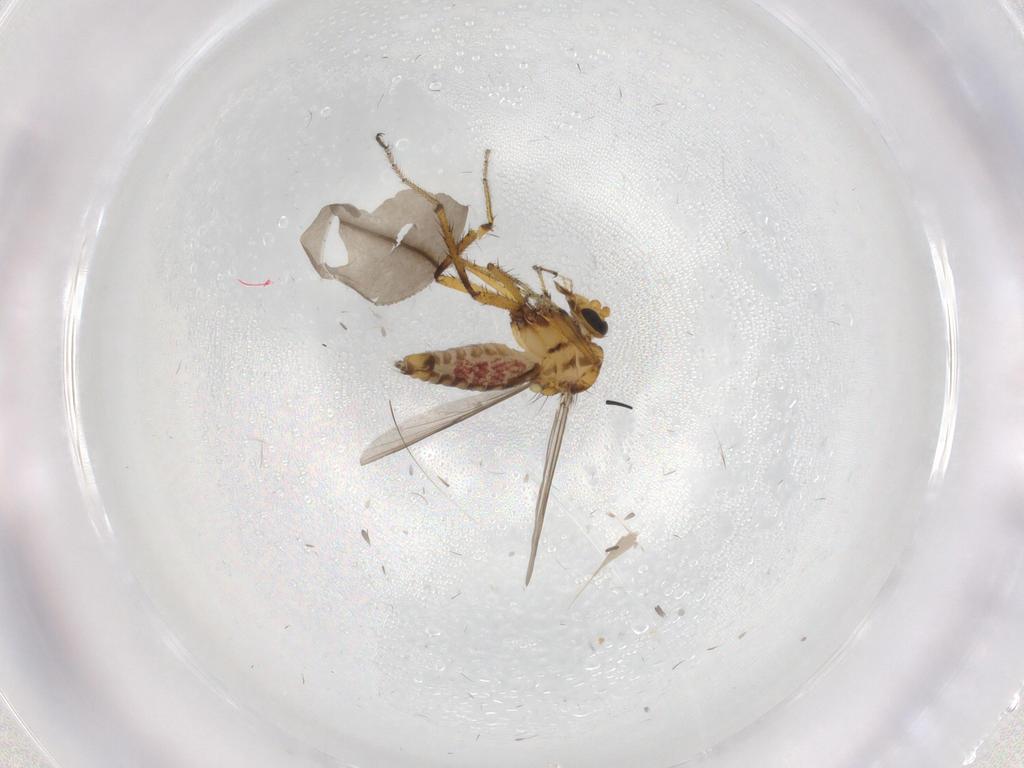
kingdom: Animalia
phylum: Arthropoda
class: Insecta
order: Diptera
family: Ceratopogonidae
